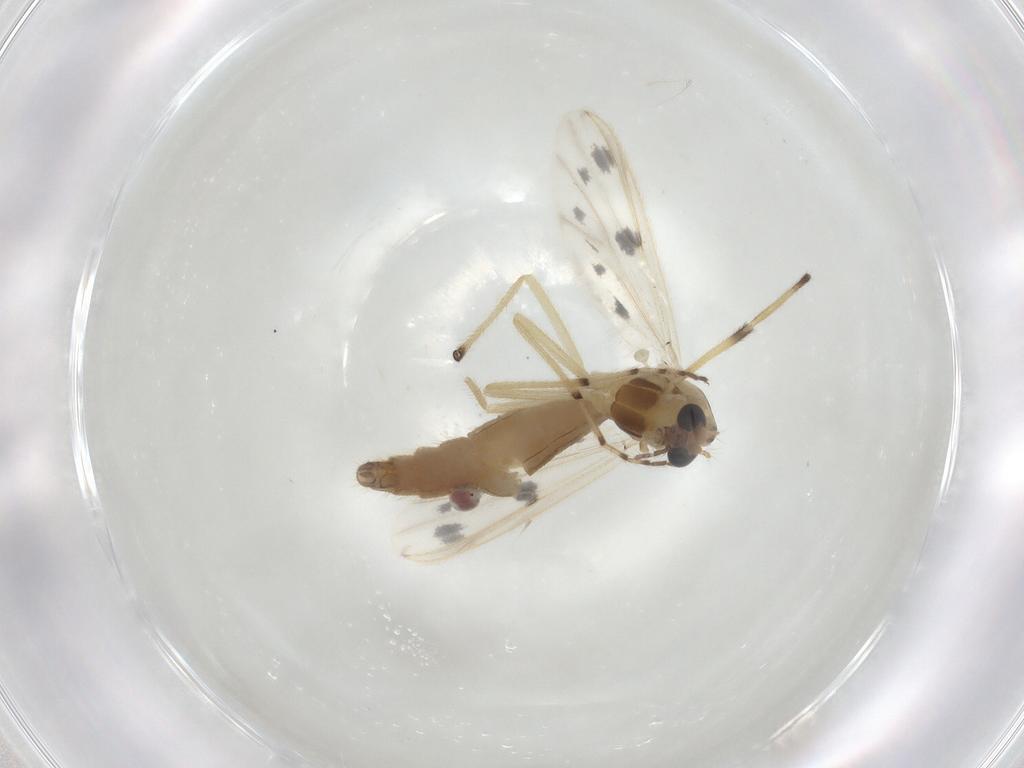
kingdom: Animalia
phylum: Arthropoda
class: Insecta
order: Diptera
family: Chironomidae
